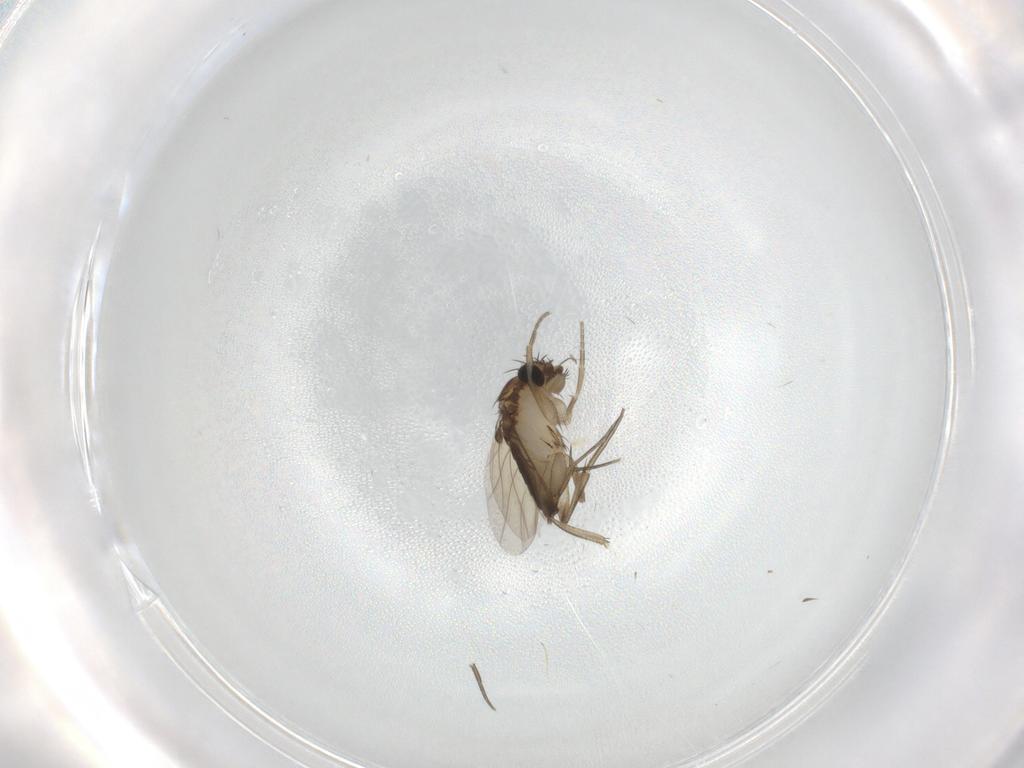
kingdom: Animalia
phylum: Arthropoda
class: Insecta
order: Diptera
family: Phoridae
